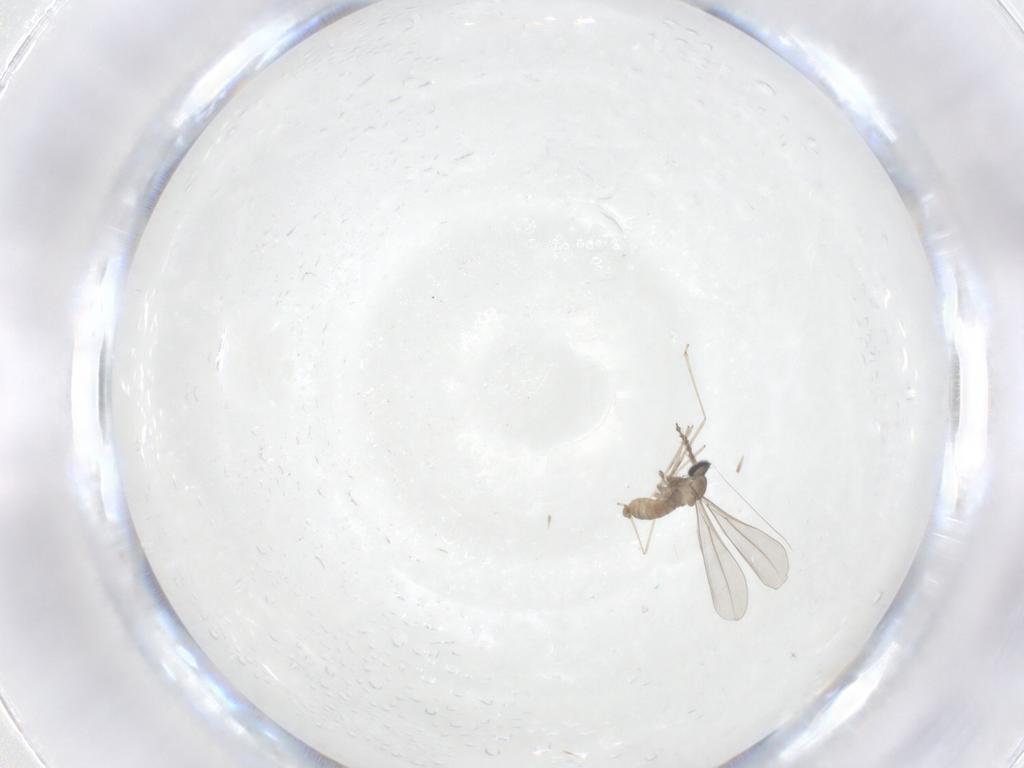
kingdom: Animalia
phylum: Arthropoda
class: Insecta
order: Diptera
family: Cecidomyiidae
